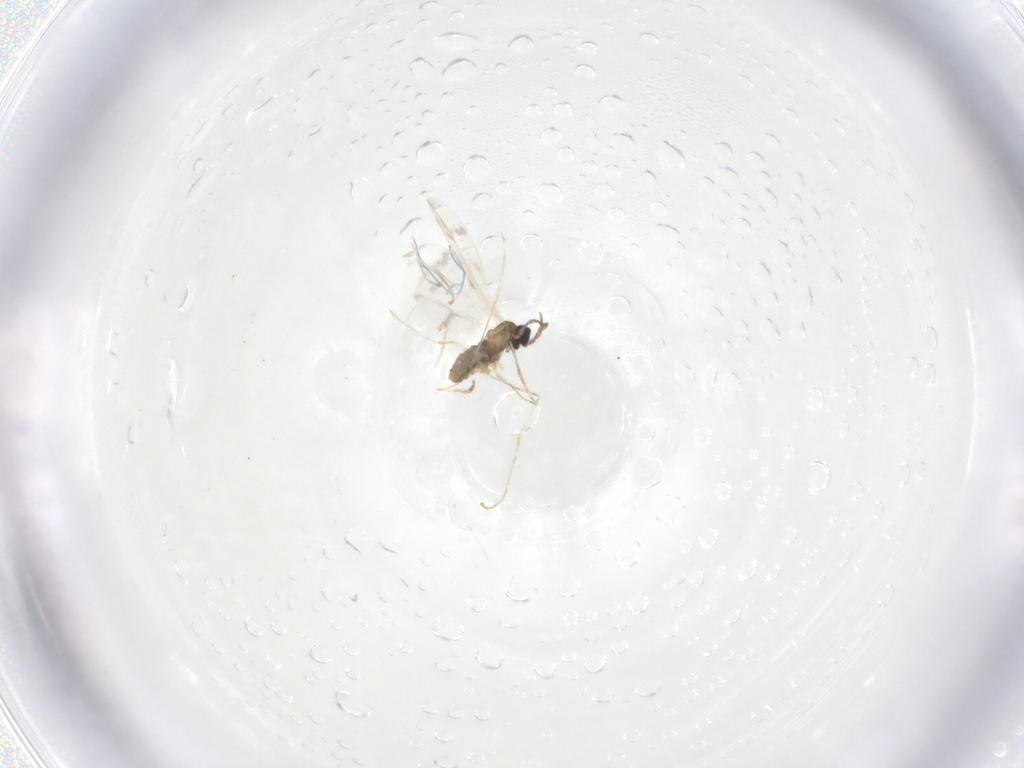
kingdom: Animalia
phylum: Arthropoda
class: Insecta
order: Diptera
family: Cecidomyiidae
